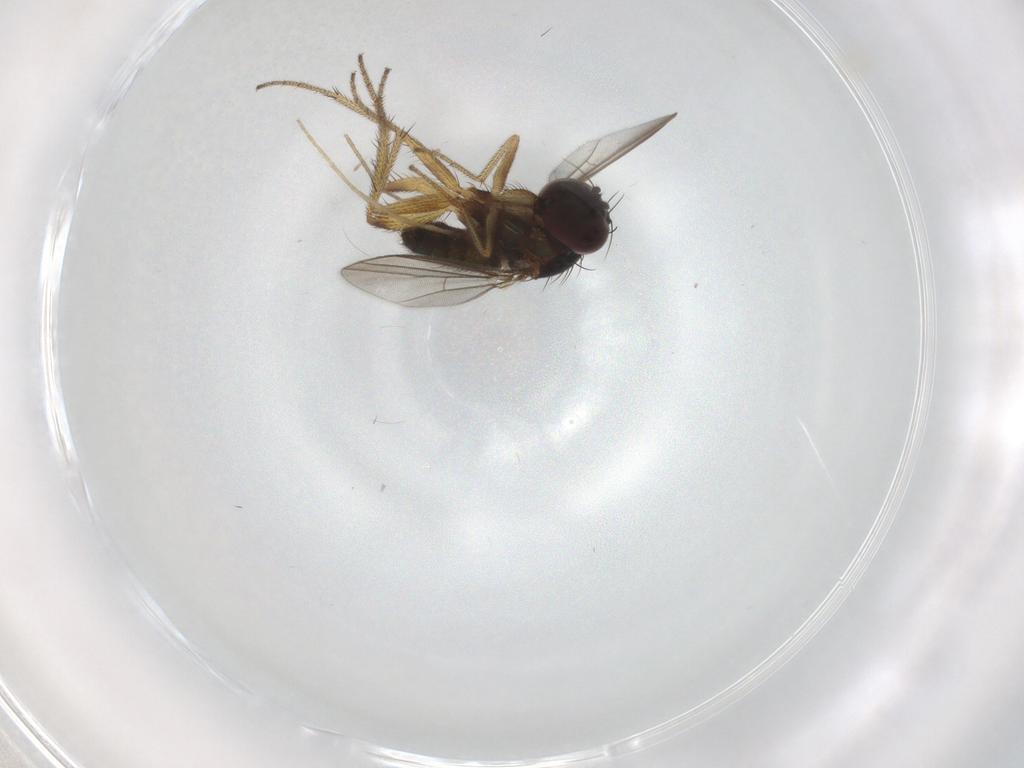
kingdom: Animalia
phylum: Arthropoda
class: Insecta
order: Diptera
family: Dolichopodidae
